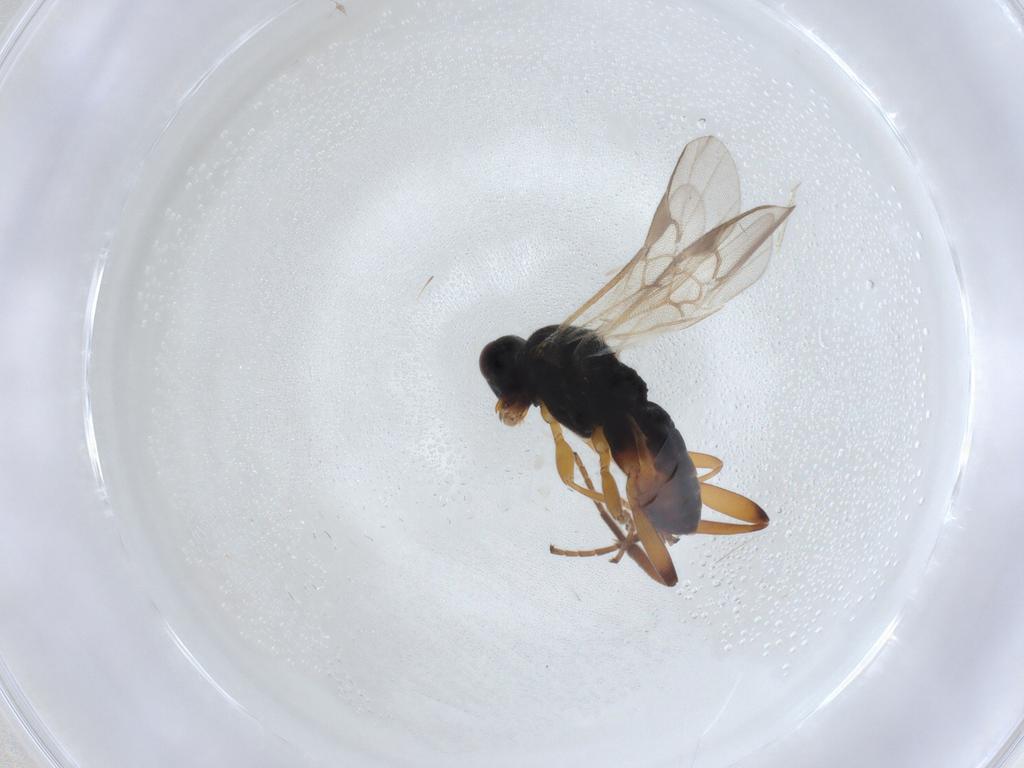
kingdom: Animalia
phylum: Arthropoda
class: Insecta
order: Hymenoptera
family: Braconidae
